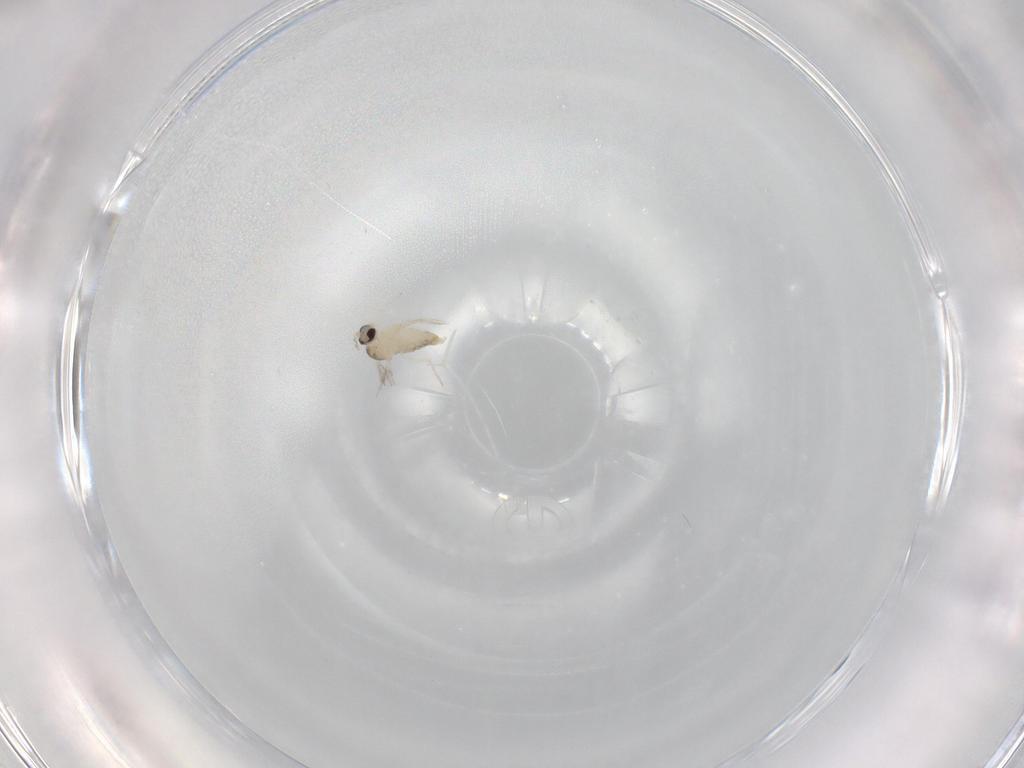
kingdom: Animalia
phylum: Arthropoda
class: Insecta
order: Diptera
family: Cecidomyiidae
